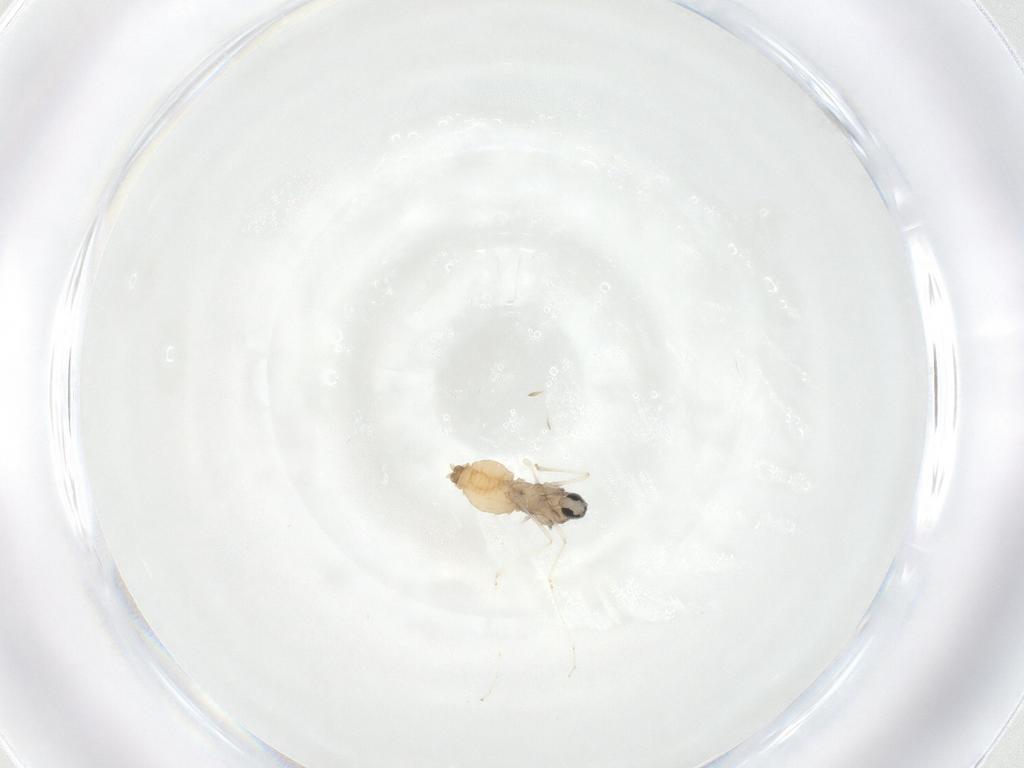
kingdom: Animalia
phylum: Arthropoda
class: Insecta
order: Diptera
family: Cecidomyiidae
